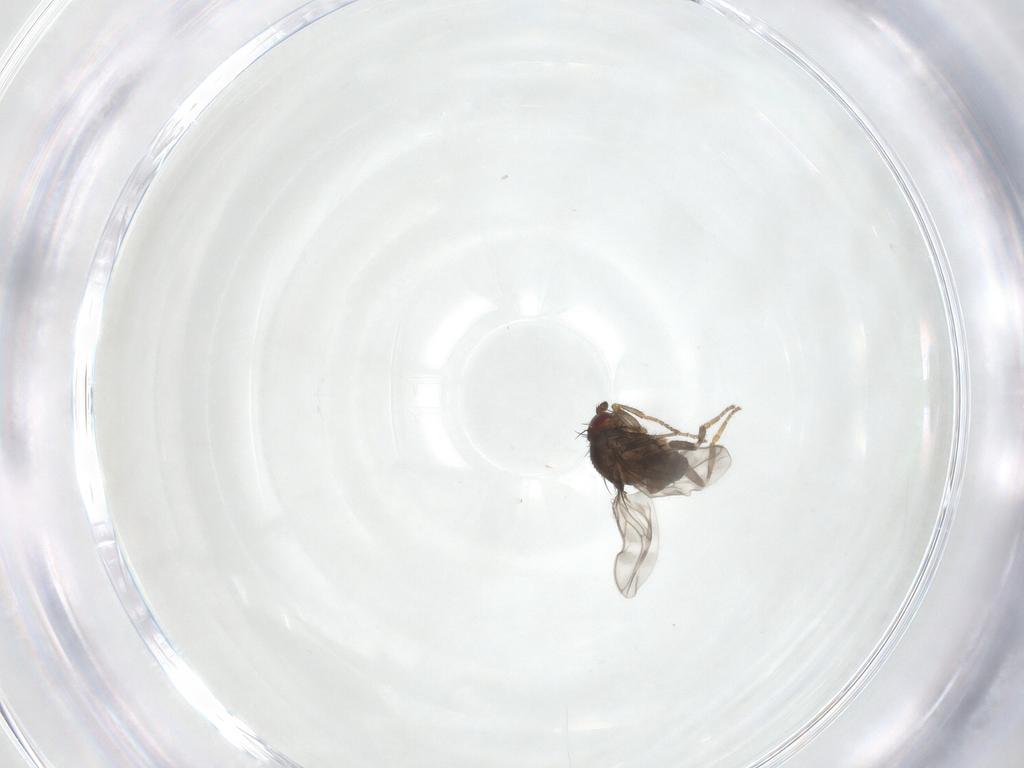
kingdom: Animalia
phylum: Arthropoda
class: Insecta
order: Diptera
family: Sphaeroceridae
